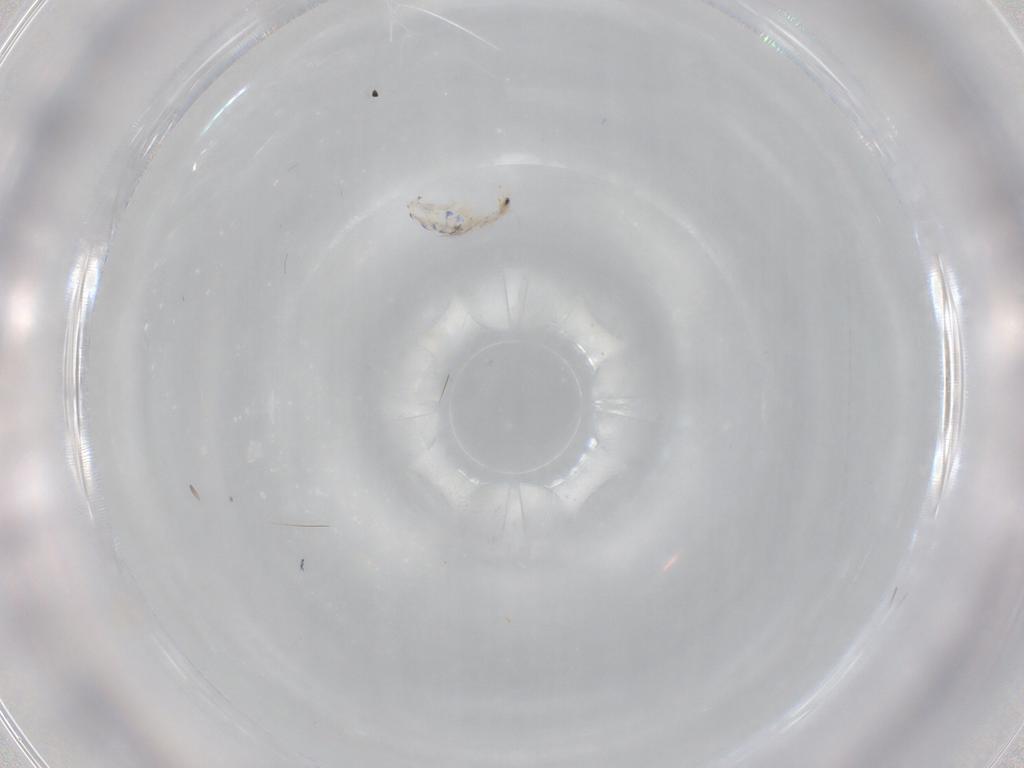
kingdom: Animalia
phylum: Arthropoda
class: Collembola
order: Entomobryomorpha
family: Entomobryidae
